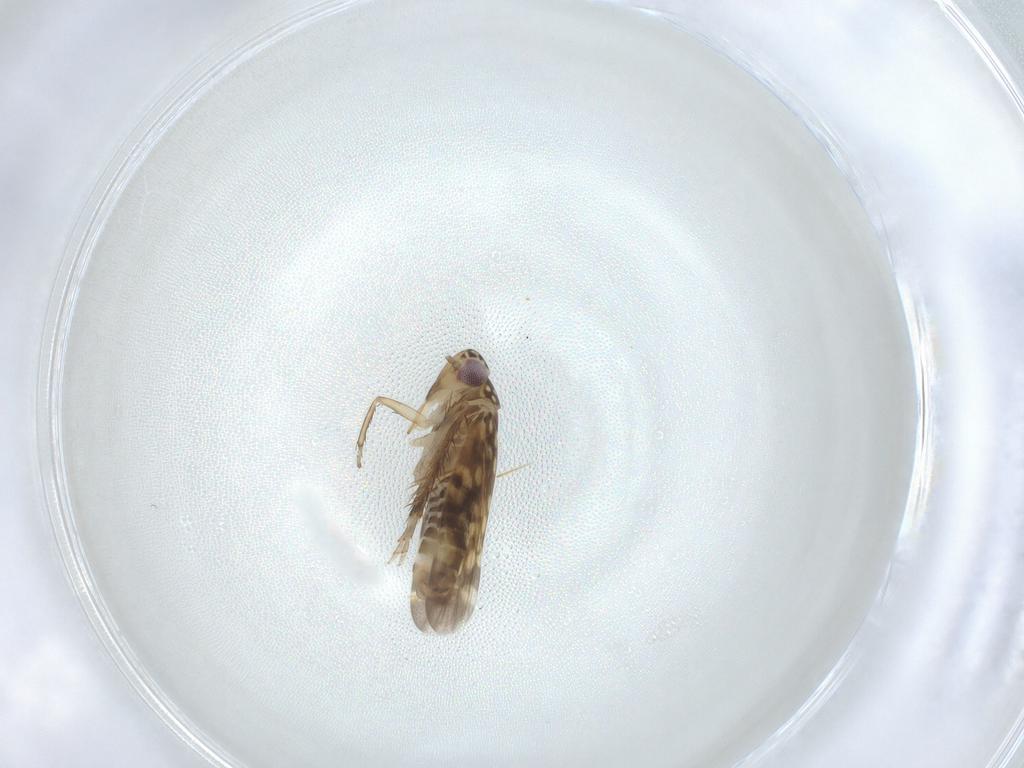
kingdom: Animalia
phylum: Arthropoda
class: Insecta
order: Hemiptera
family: Cicadellidae
